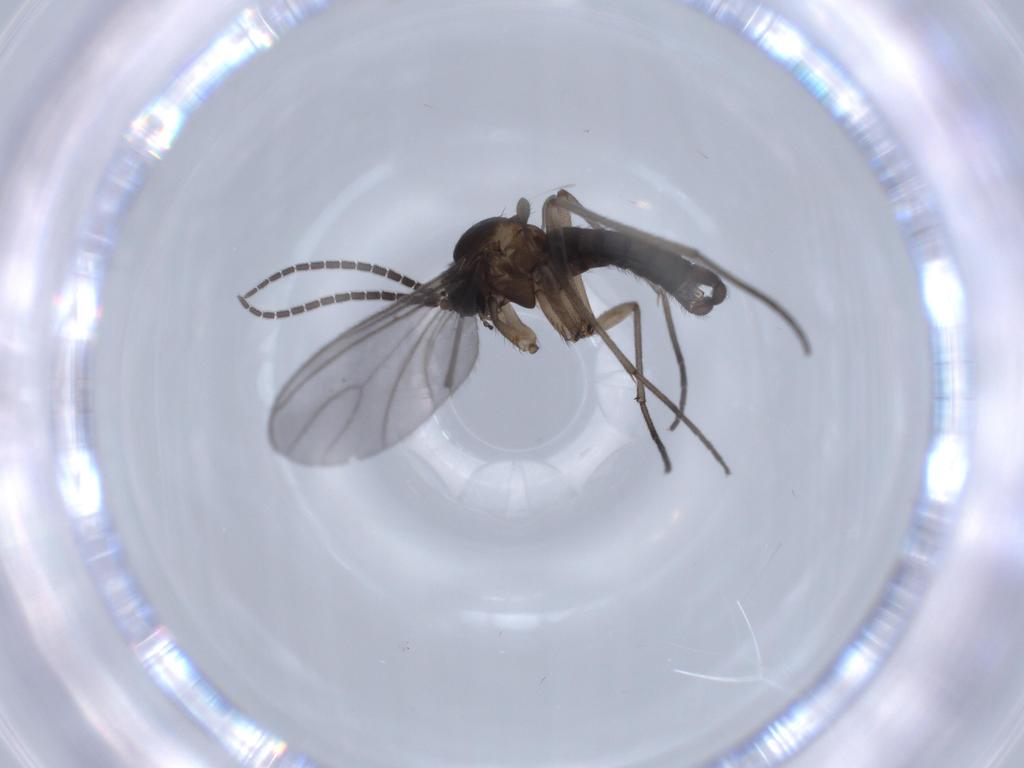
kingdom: Animalia
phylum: Arthropoda
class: Insecta
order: Diptera
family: Sciaridae
